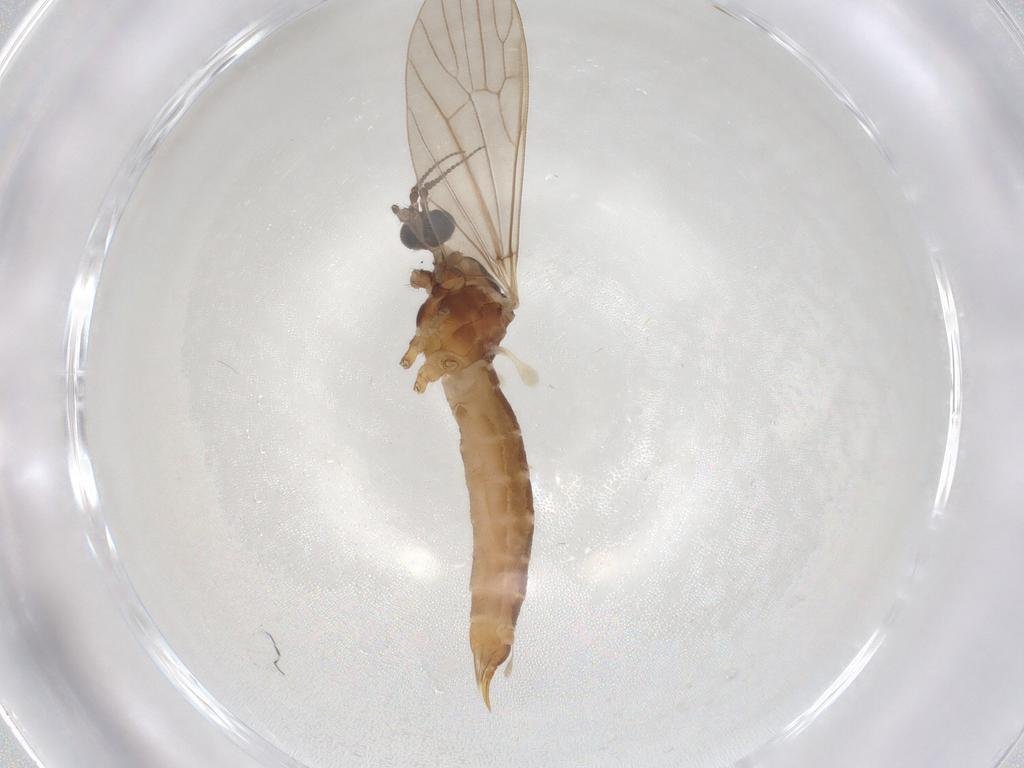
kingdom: Animalia
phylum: Arthropoda
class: Insecta
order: Diptera
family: Limoniidae
